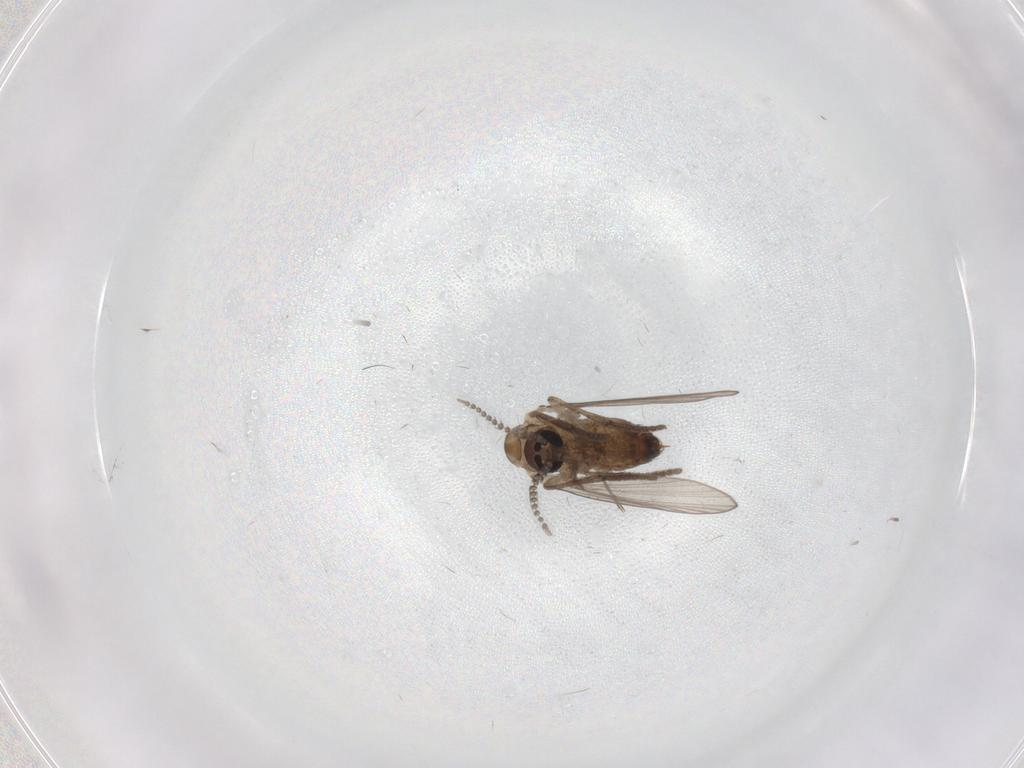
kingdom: Animalia
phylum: Arthropoda
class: Insecta
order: Diptera
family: Psychodidae
